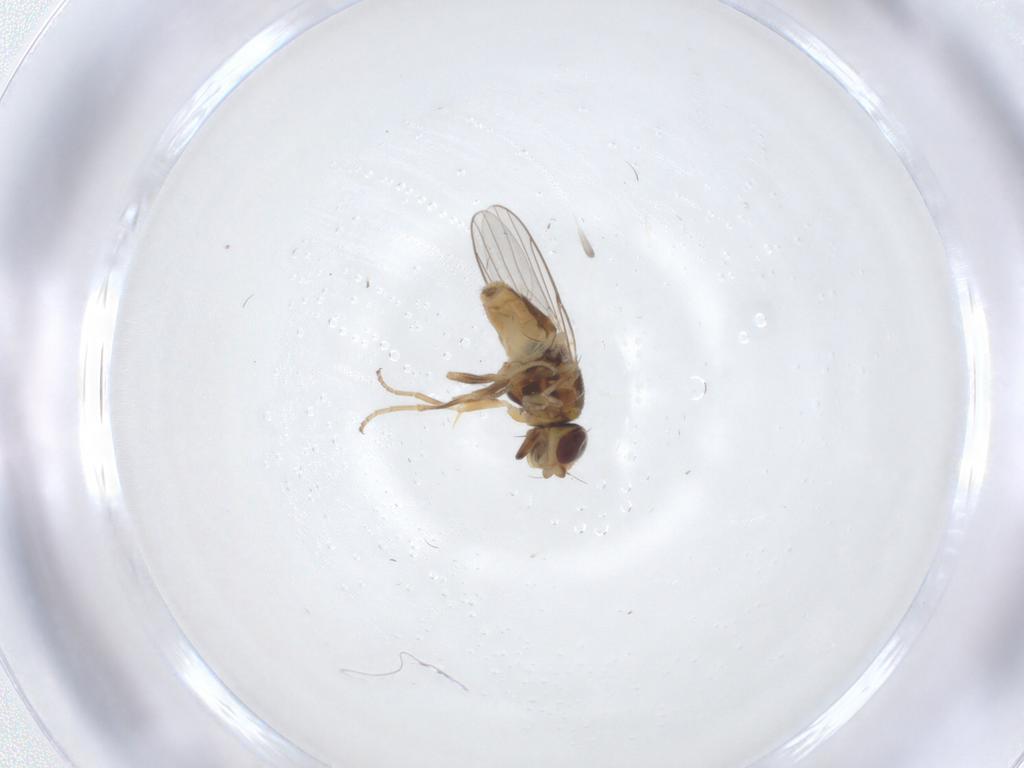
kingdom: Animalia
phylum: Arthropoda
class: Insecta
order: Diptera
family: Chloropidae
